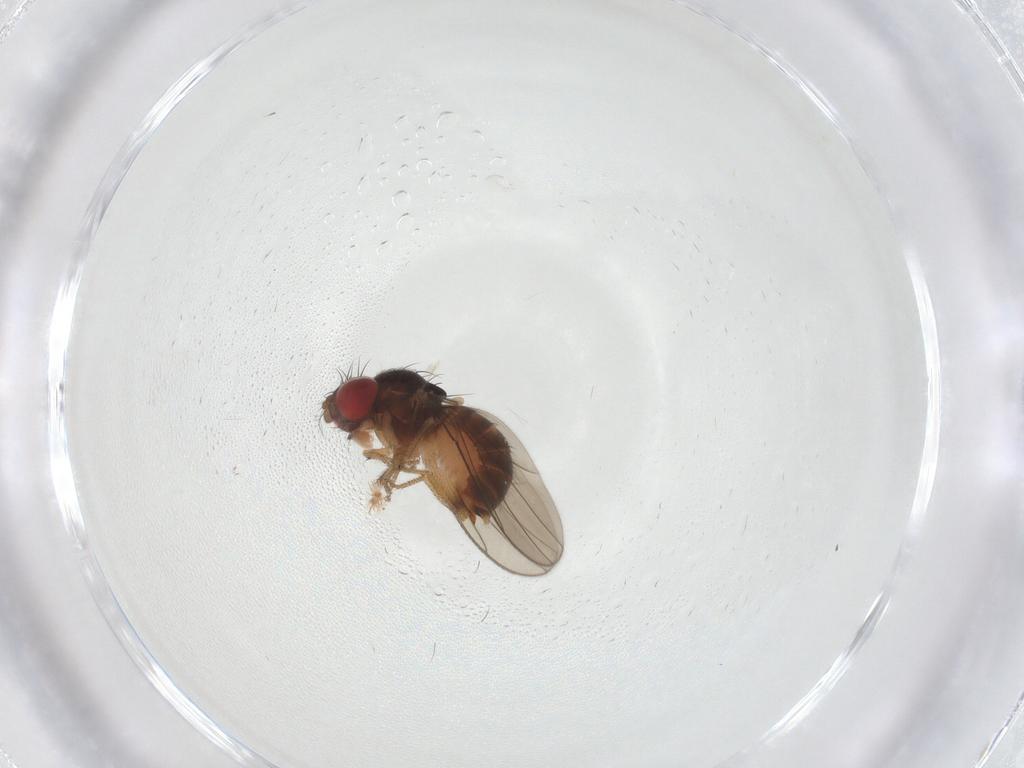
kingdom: Animalia
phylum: Arthropoda
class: Insecta
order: Diptera
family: Drosophilidae
